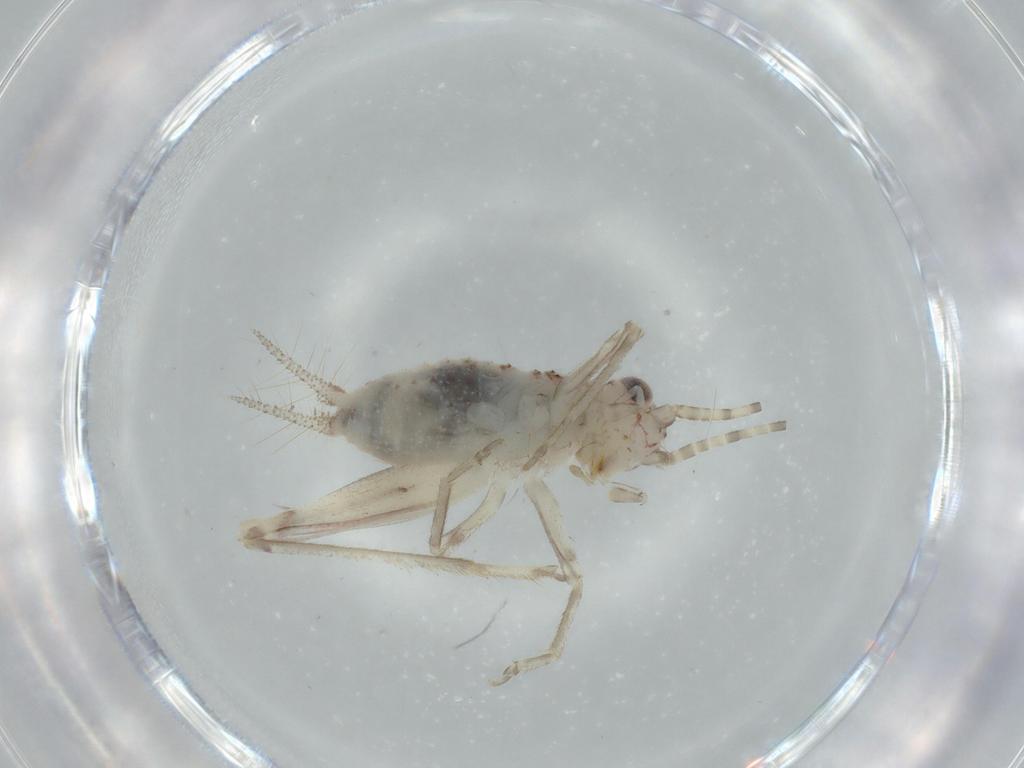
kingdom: Animalia
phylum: Arthropoda
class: Insecta
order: Orthoptera
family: Trigonidiidae
